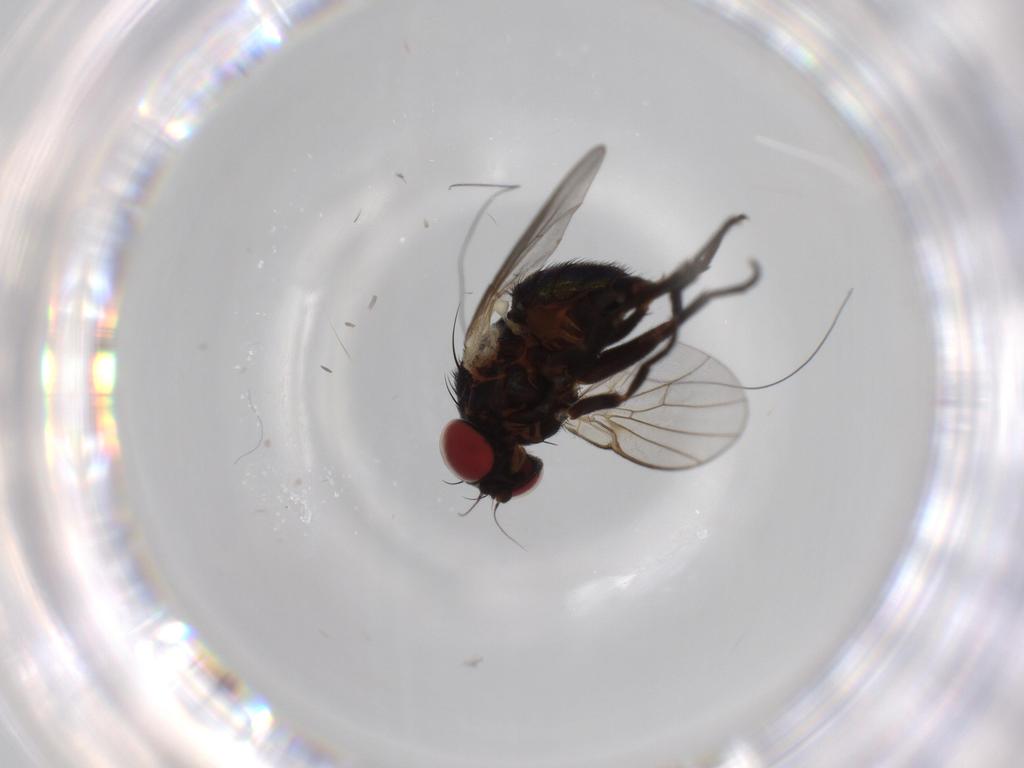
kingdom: Animalia
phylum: Arthropoda
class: Insecta
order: Diptera
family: Agromyzidae
